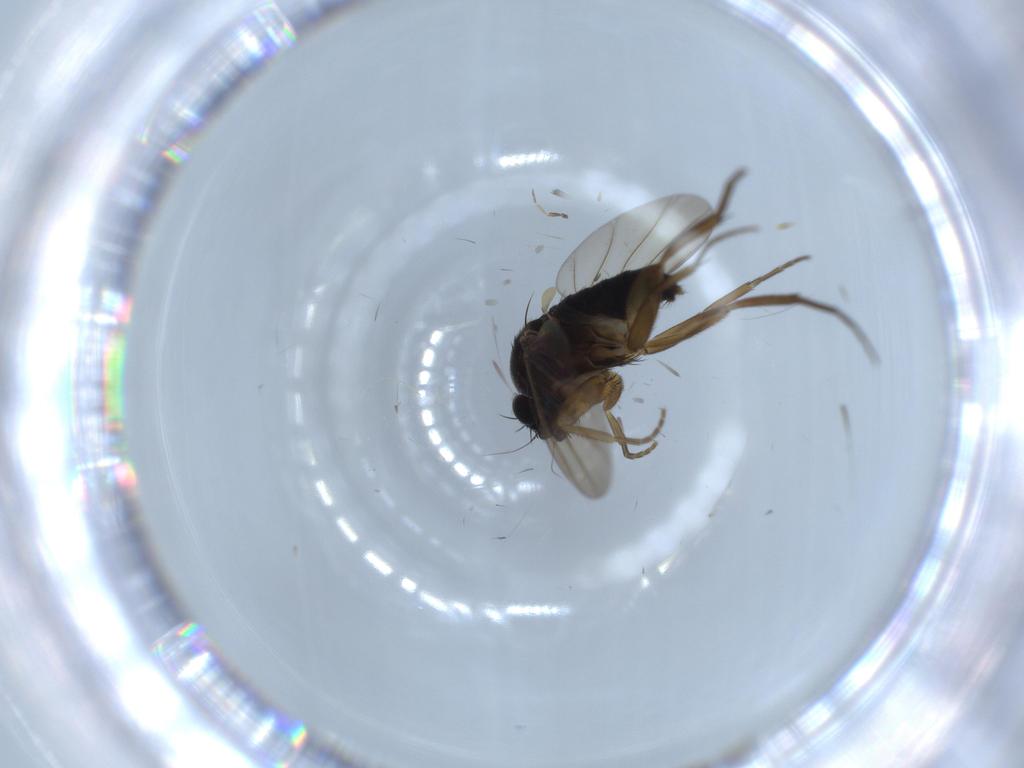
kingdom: Animalia
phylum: Arthropoda
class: Insecta
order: Diptera
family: Phoridae
